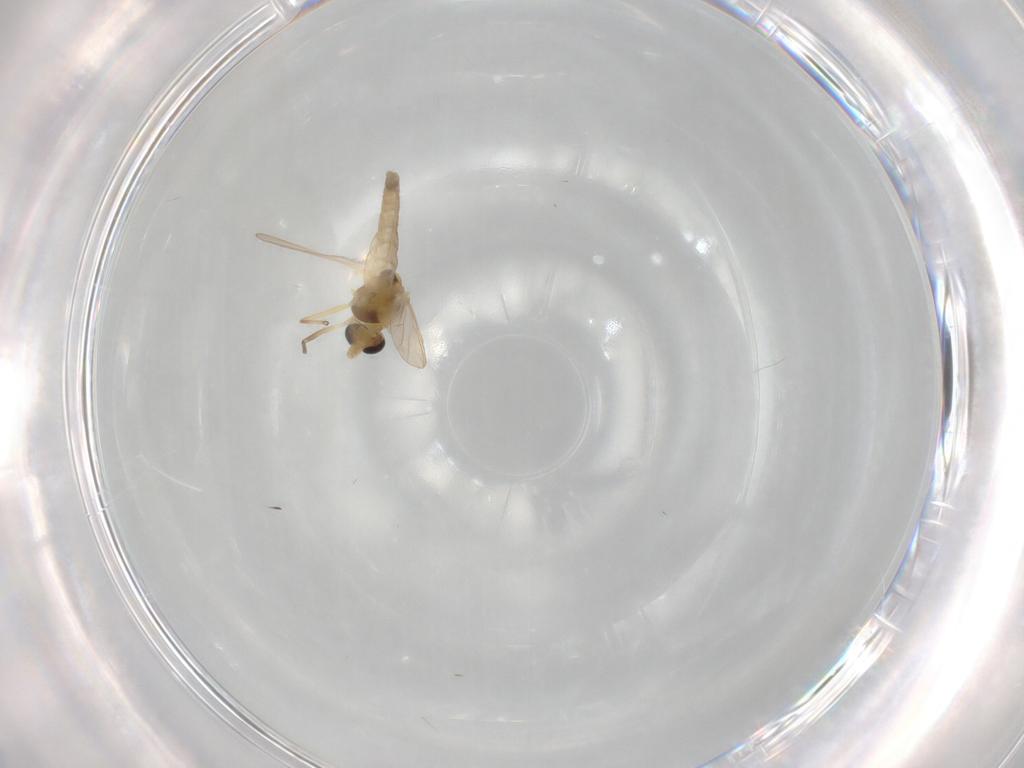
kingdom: Animalia
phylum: Arthropoda
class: Insecta
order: Diptera
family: Chironomidae
